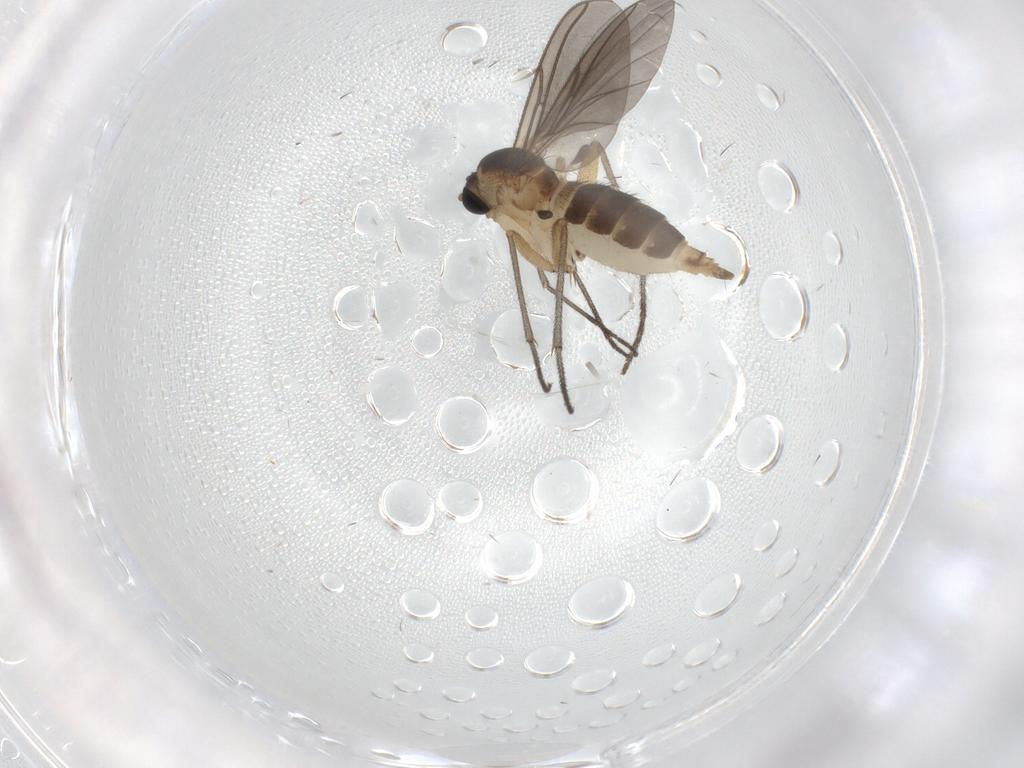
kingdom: Animalia
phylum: Arthropoda
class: Insecta
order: Diptera
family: Sciaridae
